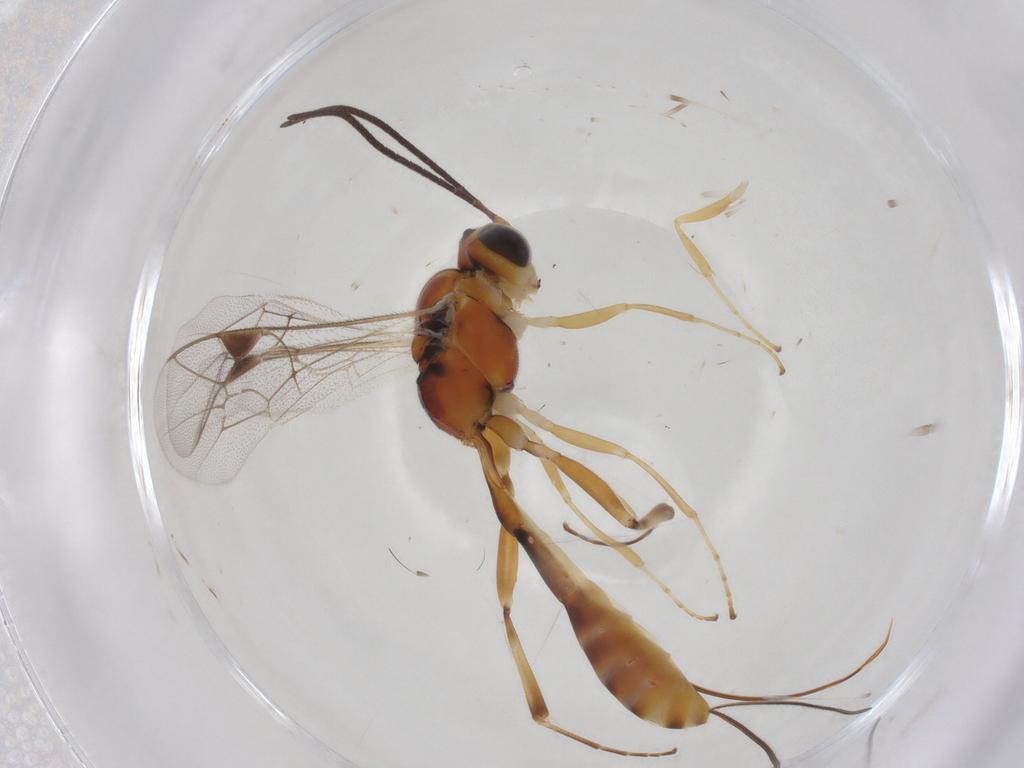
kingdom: Animalia
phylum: Arthropoda
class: Insecta
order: Hymenoptera
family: Ichneumonidae
